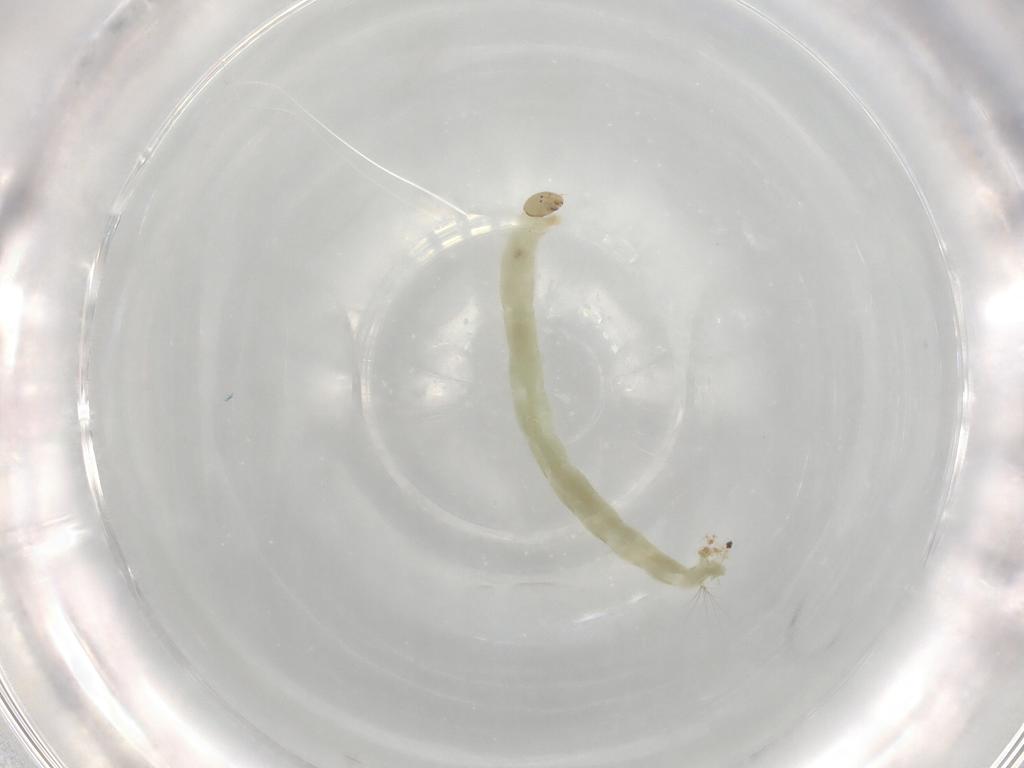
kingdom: Animalia
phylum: Arthropoda
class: Insecta
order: Diptera
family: Chironomidae
